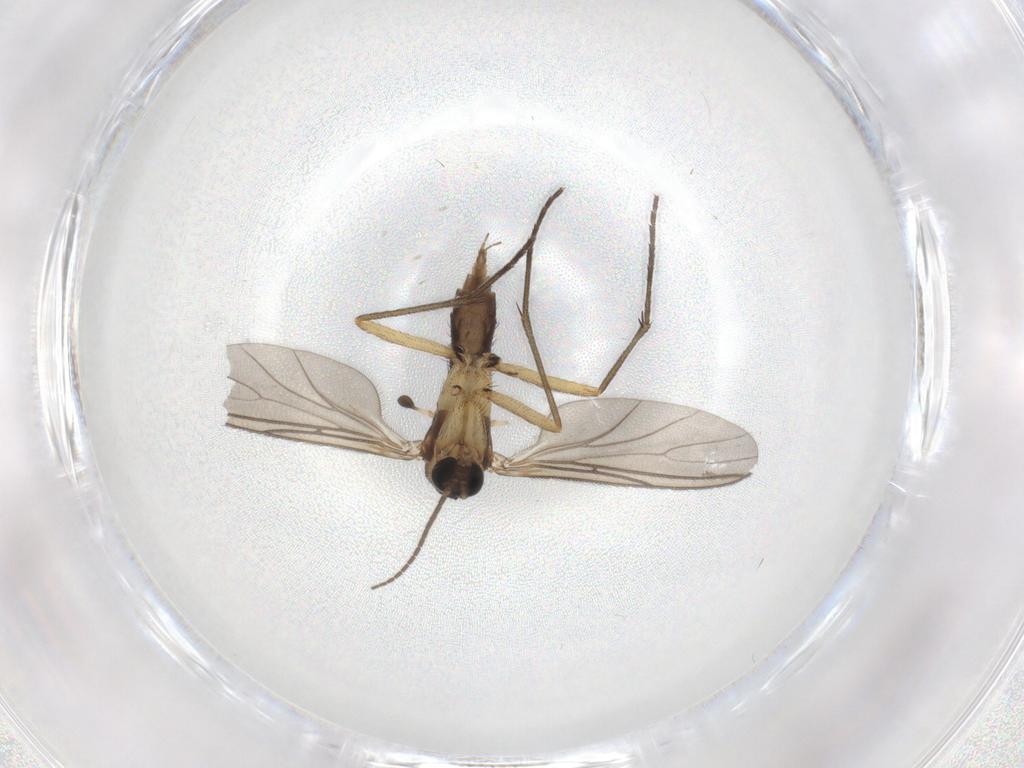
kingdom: Animalia
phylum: Arthropoda
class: Insecta
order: Diptera
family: Sciaridae
